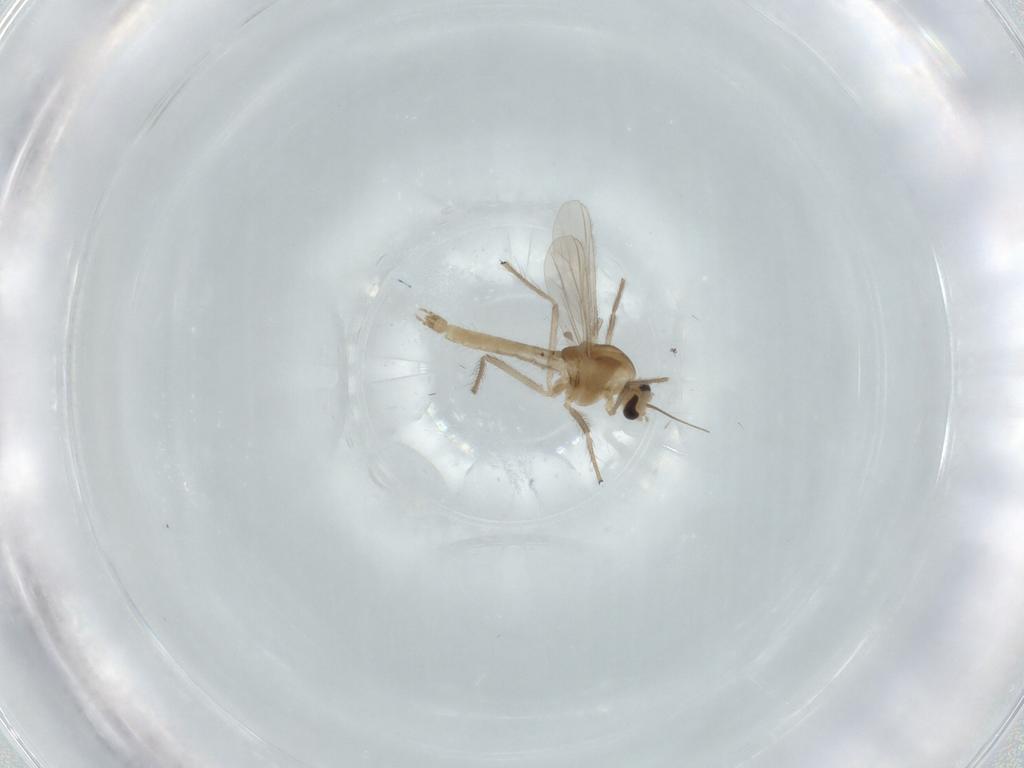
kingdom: Animalia
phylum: Arthropoda
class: Insecta
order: Diptera
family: Chironomidae
